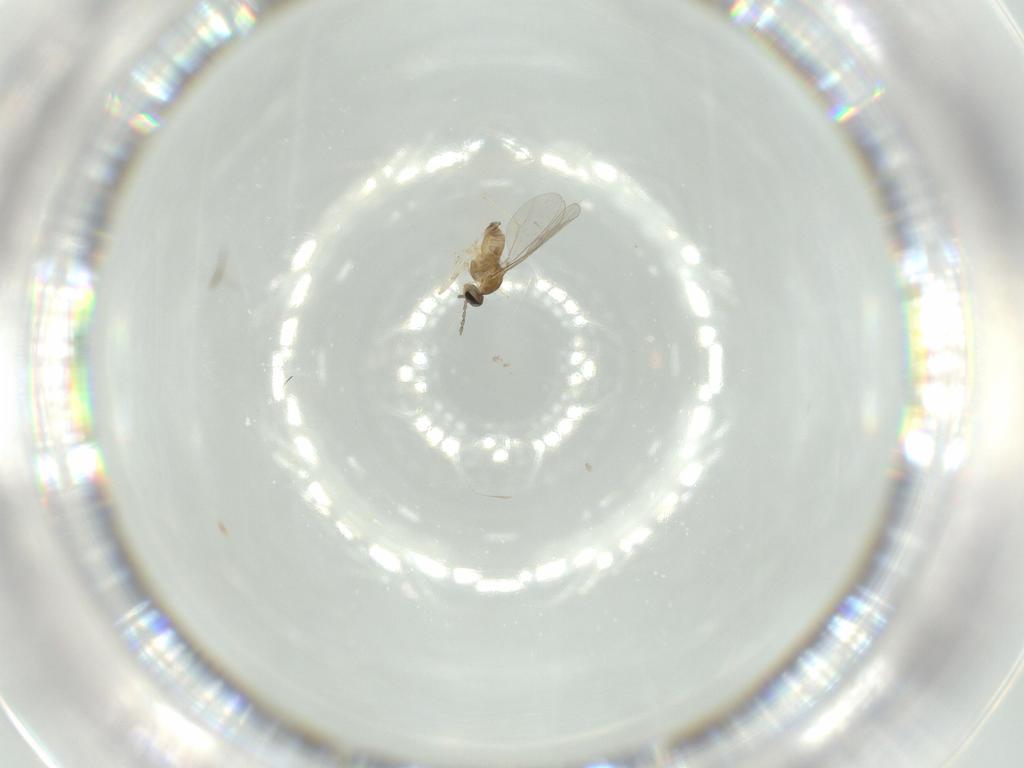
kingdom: Animalia
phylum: Arthropoda
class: Insecta
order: Diptera
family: Cecidomyiidae
